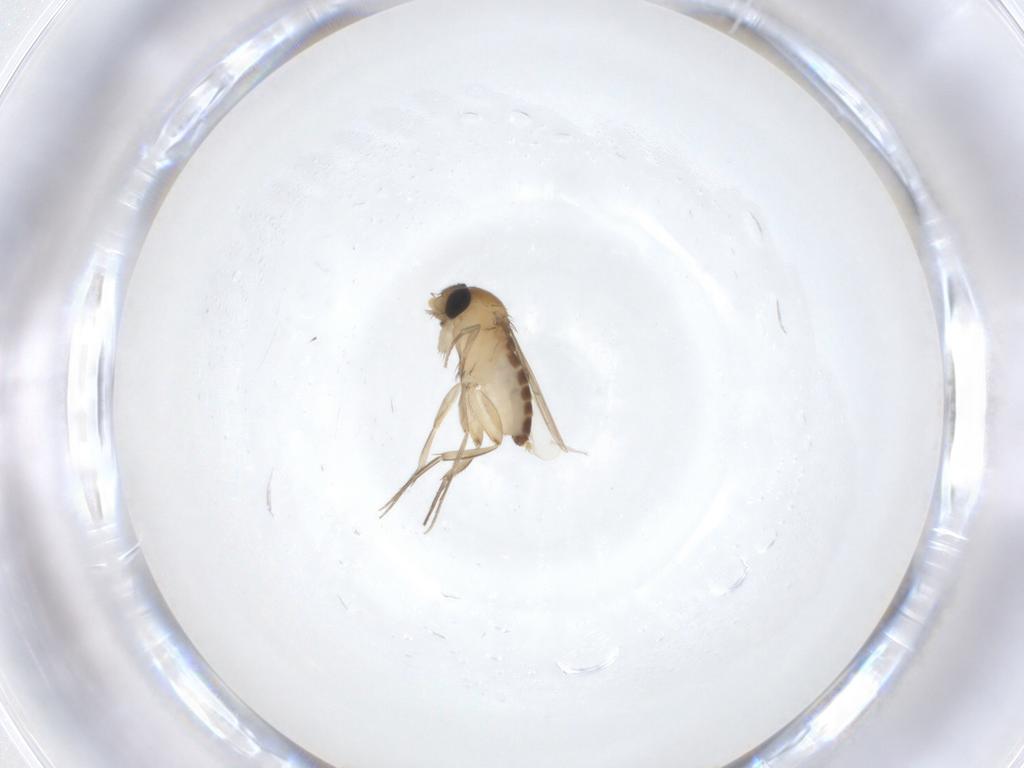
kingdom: Animalia
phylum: Arthropoda
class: Insecta
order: Diptera
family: Phoridae
